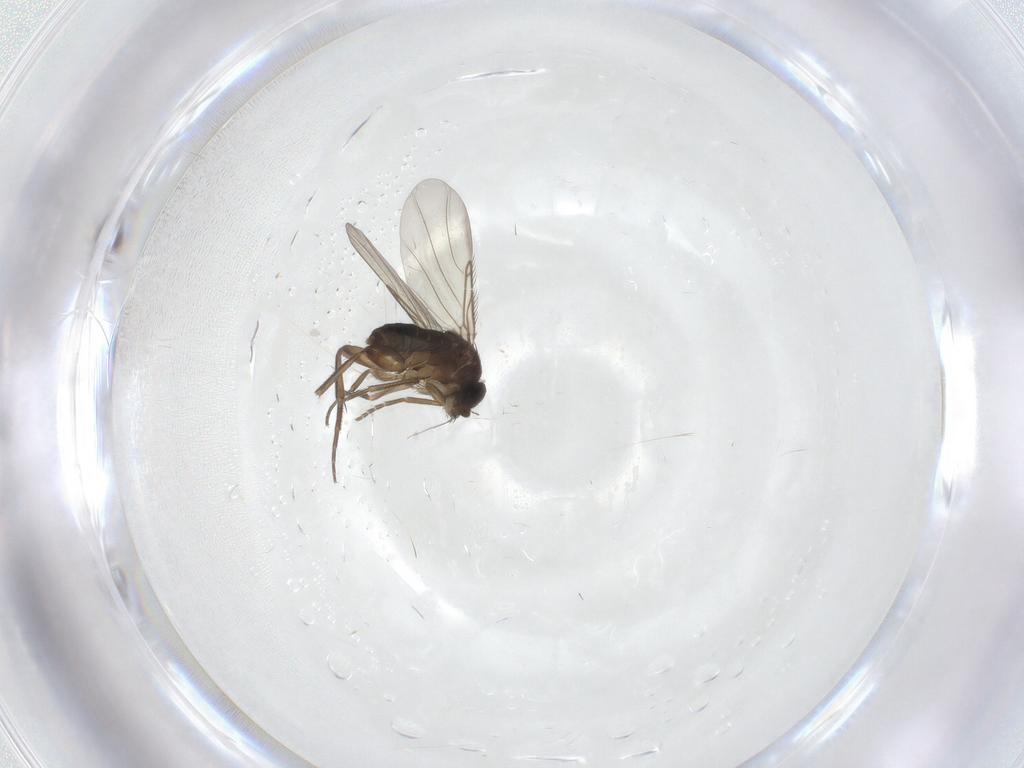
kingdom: Animalia
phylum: Arthropoda
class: Insecta
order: Diptera
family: Phoridae
